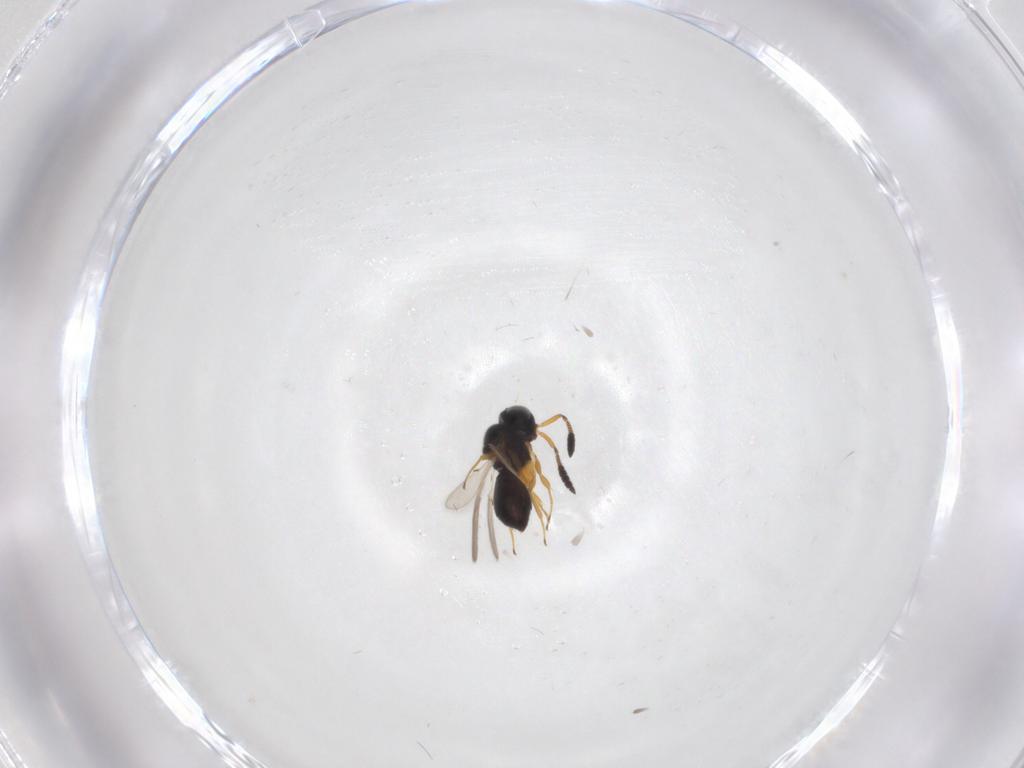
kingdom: Animalia
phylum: Arthropoda
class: Insecta
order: Hymenoptera
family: Scelionidae
